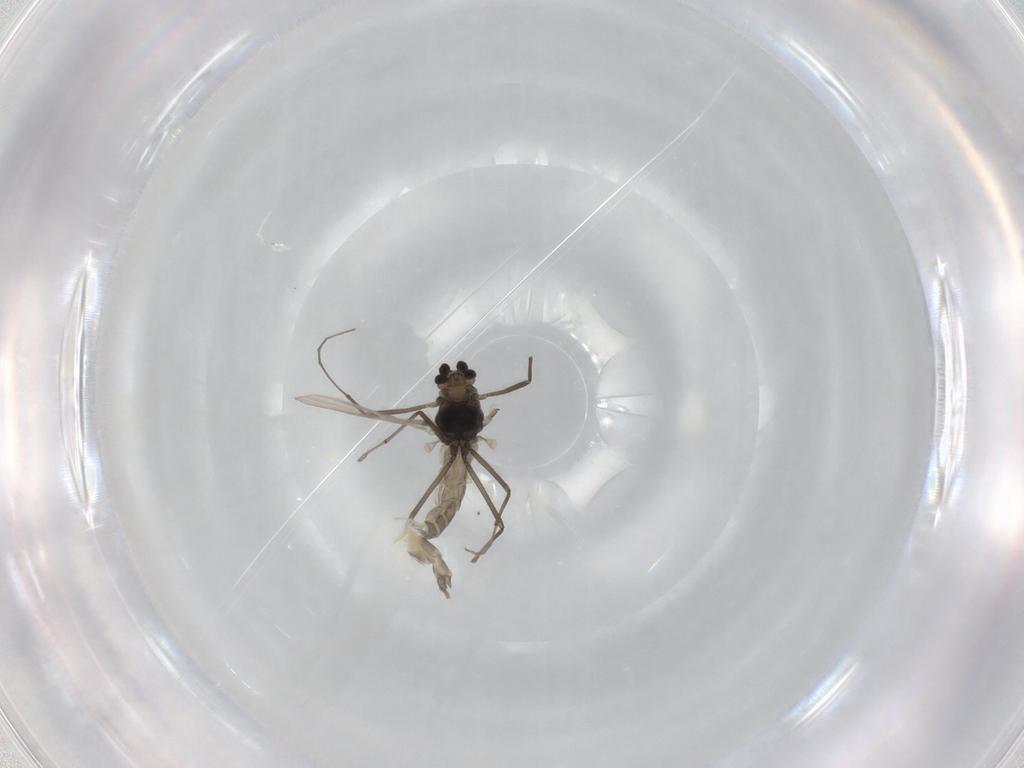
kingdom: Animalia
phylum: Arthropoda
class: Insecta
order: Diptera
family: Chironomidae
